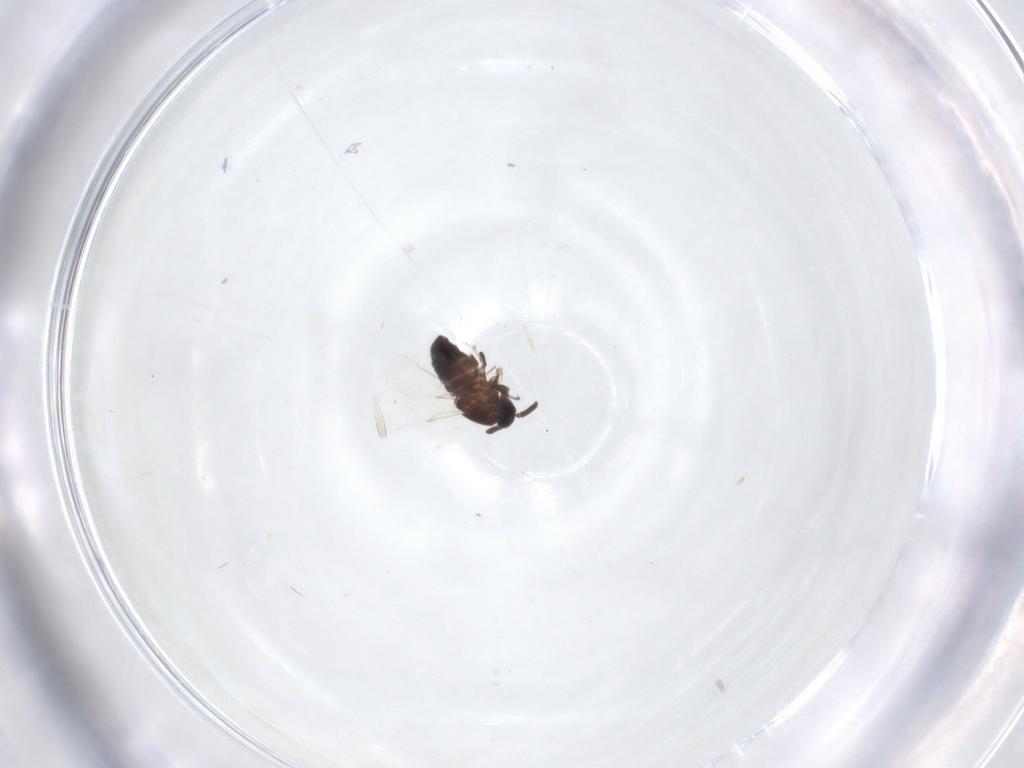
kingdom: Animalia
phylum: Arthropoda
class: Insecta
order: Diptera
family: Scatopsidae
